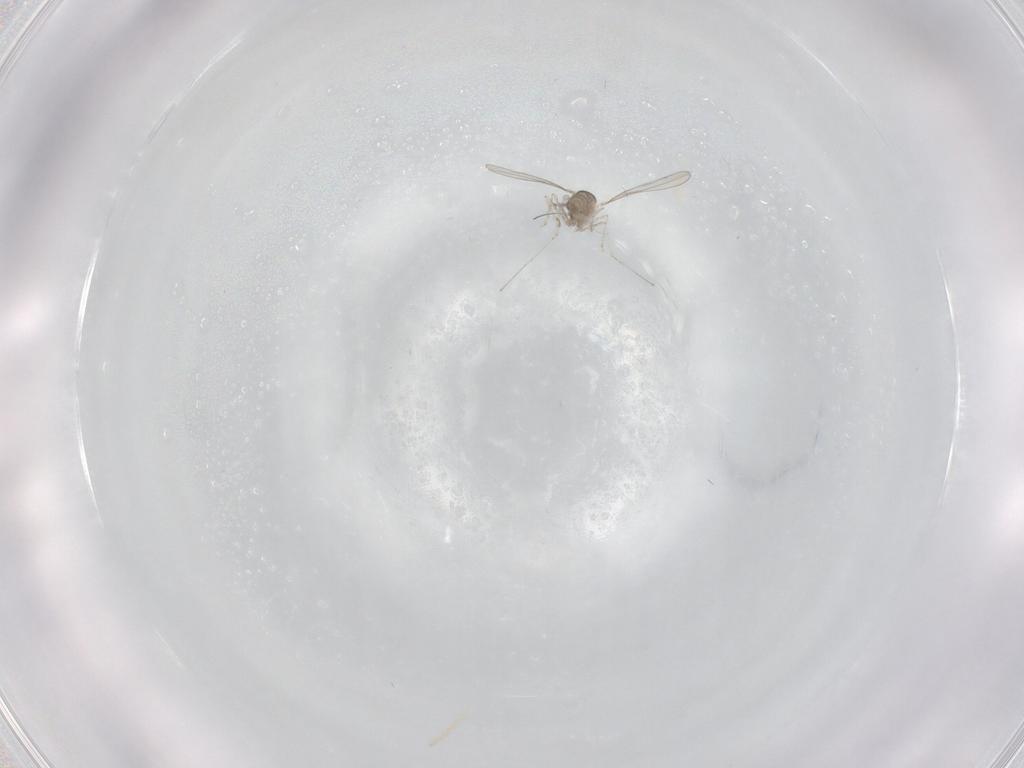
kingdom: Animalia
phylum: Arthropoda
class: Insecta
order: Diptera
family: Cecidomyiidae
